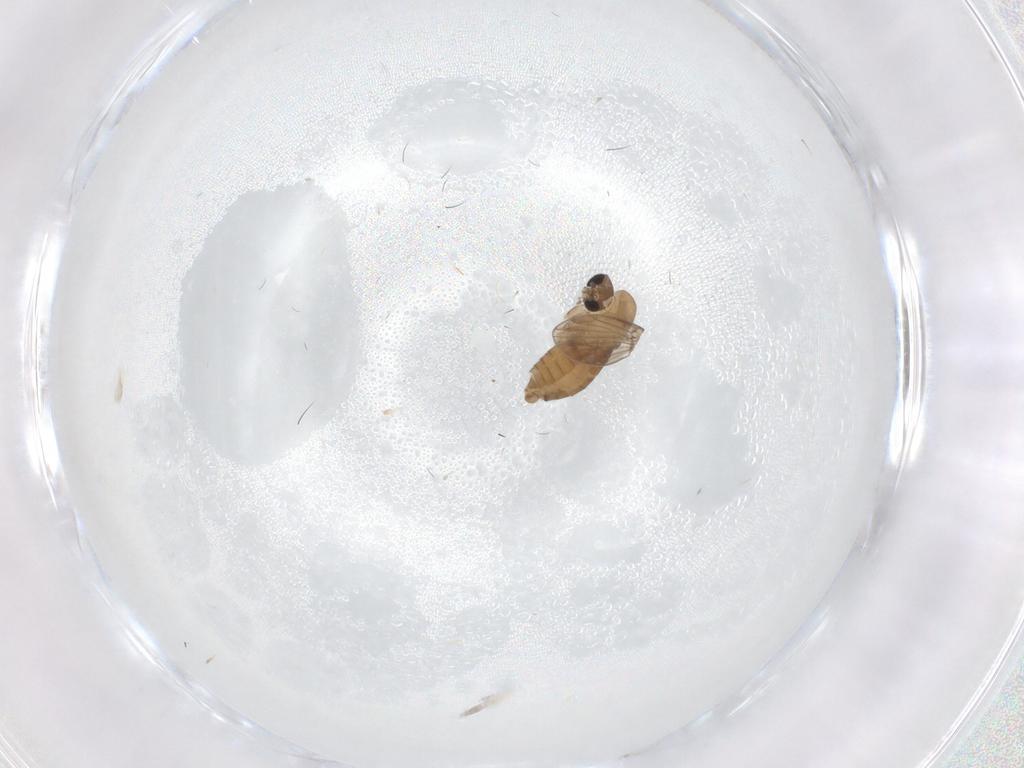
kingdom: Animalia
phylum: Arthropoda
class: Insecta
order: Diptera
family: Psychodidae
